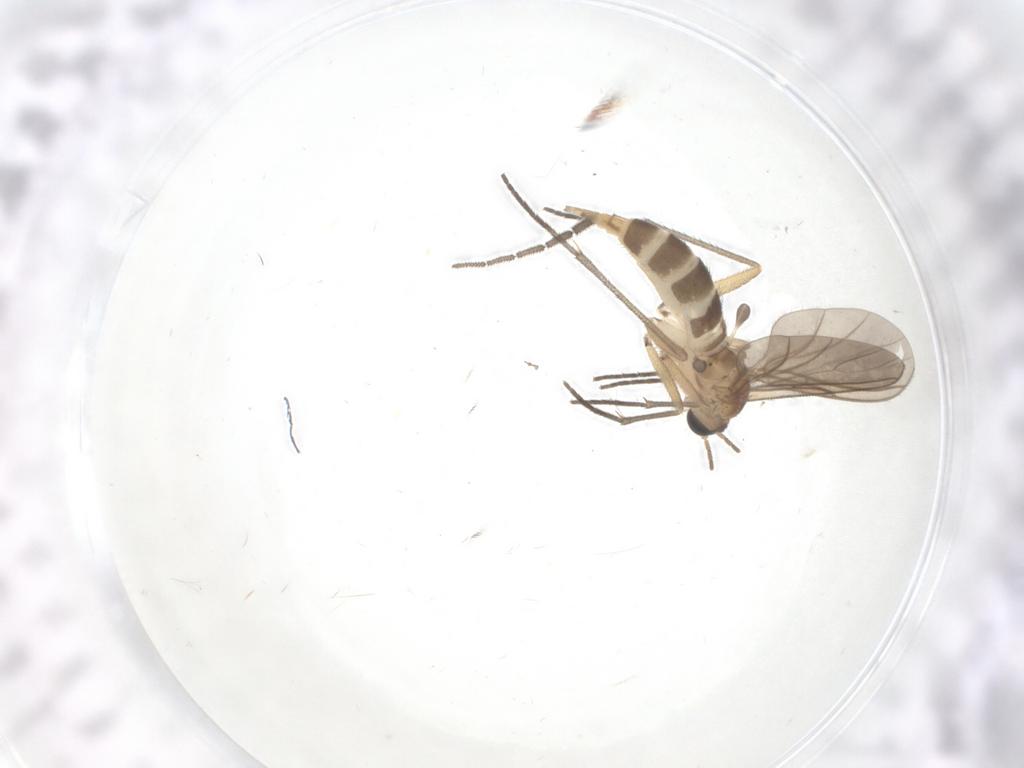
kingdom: Animalia
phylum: Arthropoda
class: Insecta
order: Diptera
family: Sciaridae
